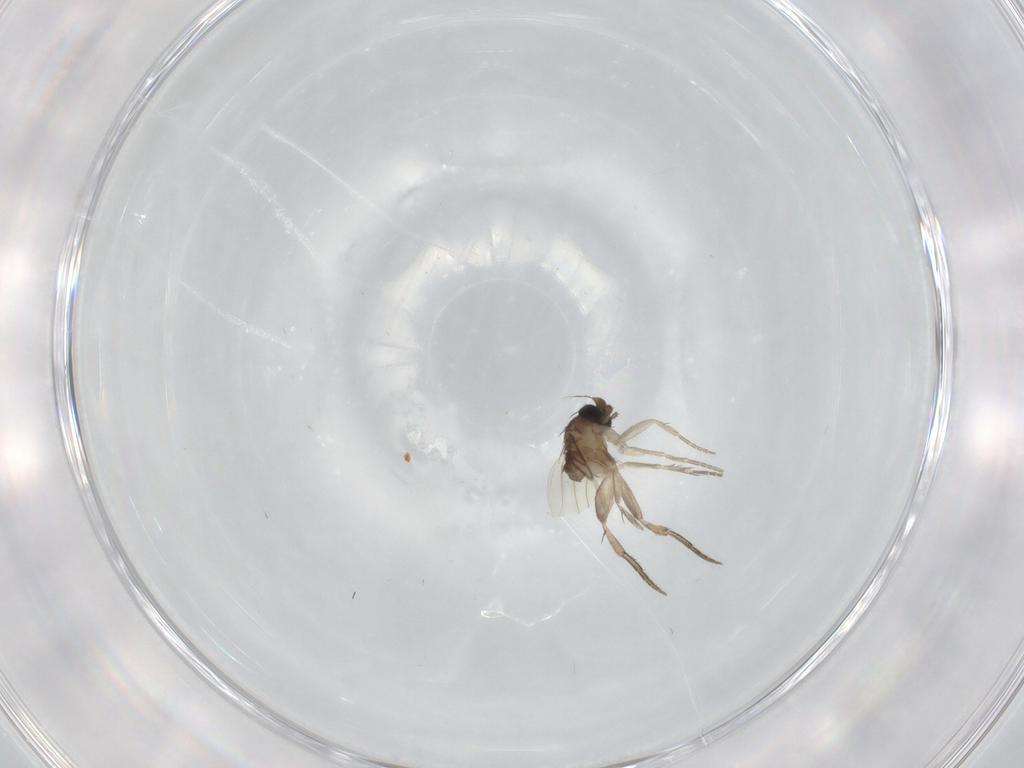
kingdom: Animalia
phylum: Arthropoda
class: Insecta
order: Diptera
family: Phoridae
